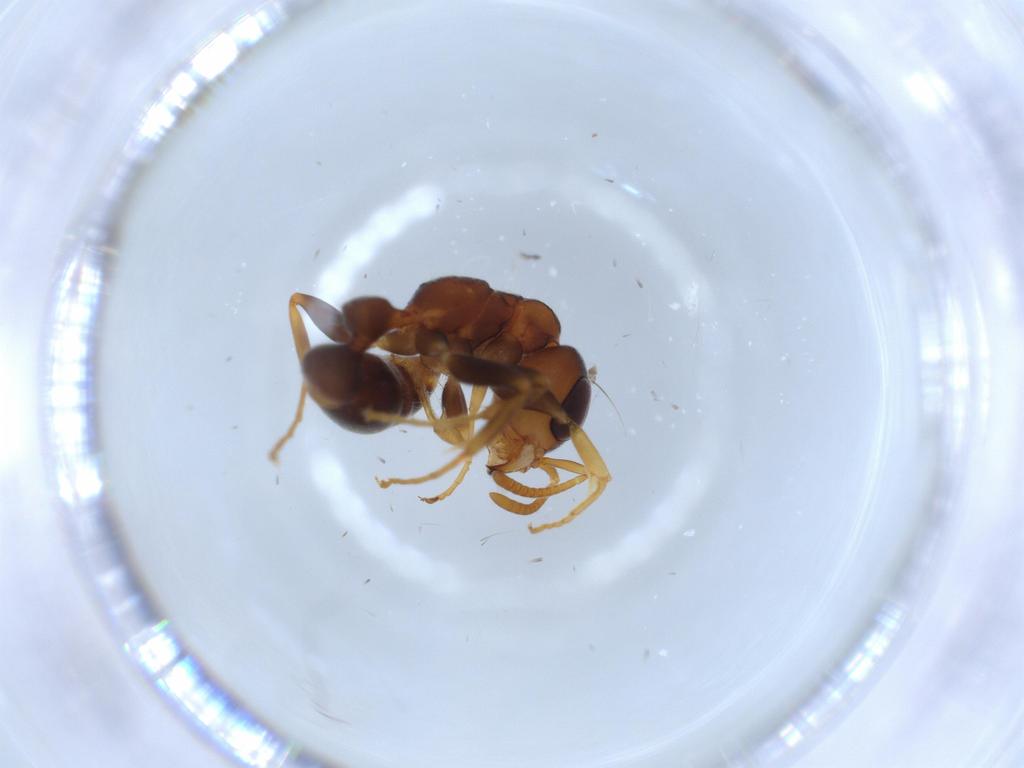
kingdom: Animalia
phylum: Arthropoda
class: Insecta
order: Hymenoptera
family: Formicidae
